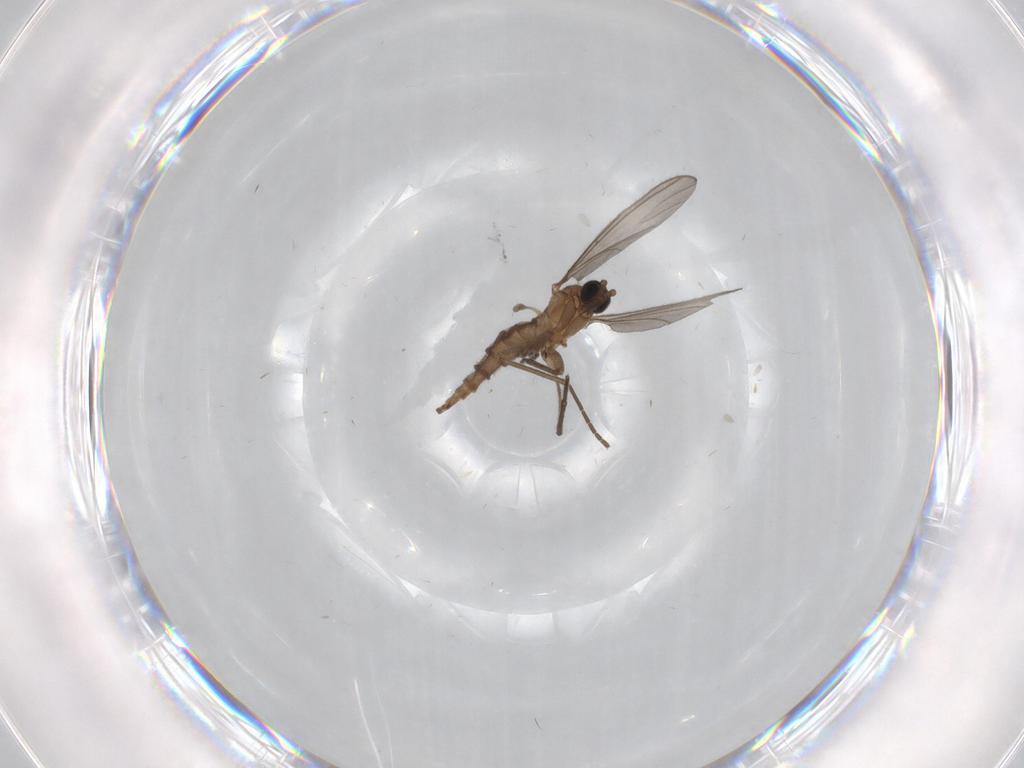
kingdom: Animalia
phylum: Arthropoda
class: Insecta
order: Diptera
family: Sciaridae
